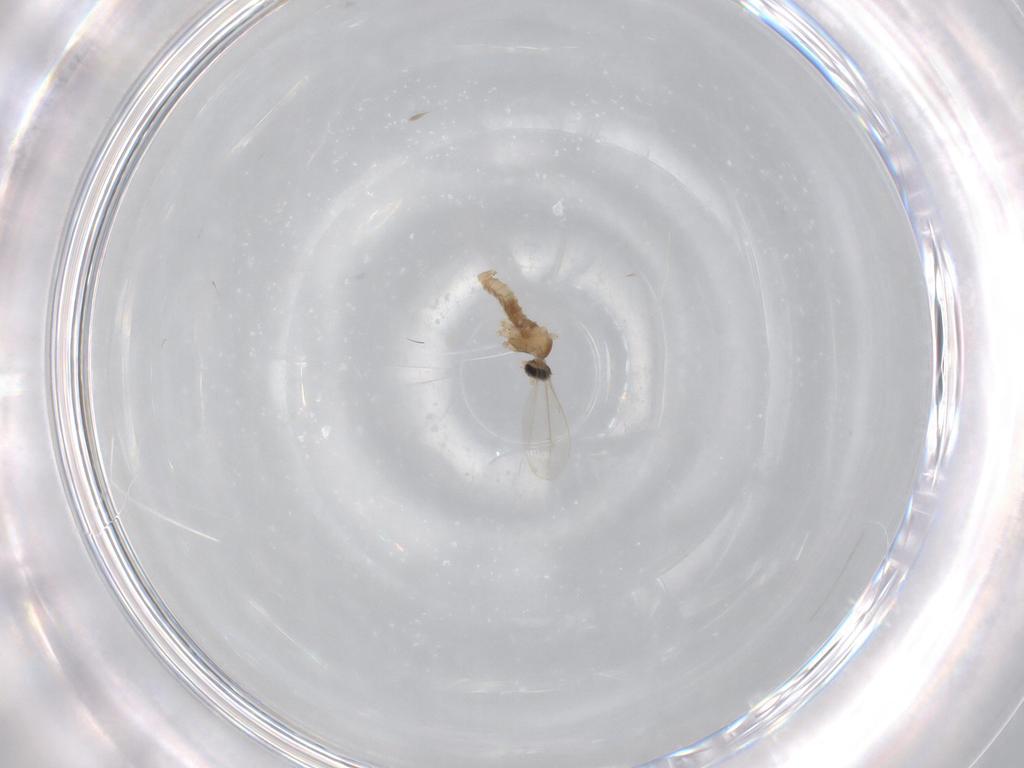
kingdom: Animalia
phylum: Arthropoda
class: Insecta
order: Diptera
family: Cecidomyiidae
